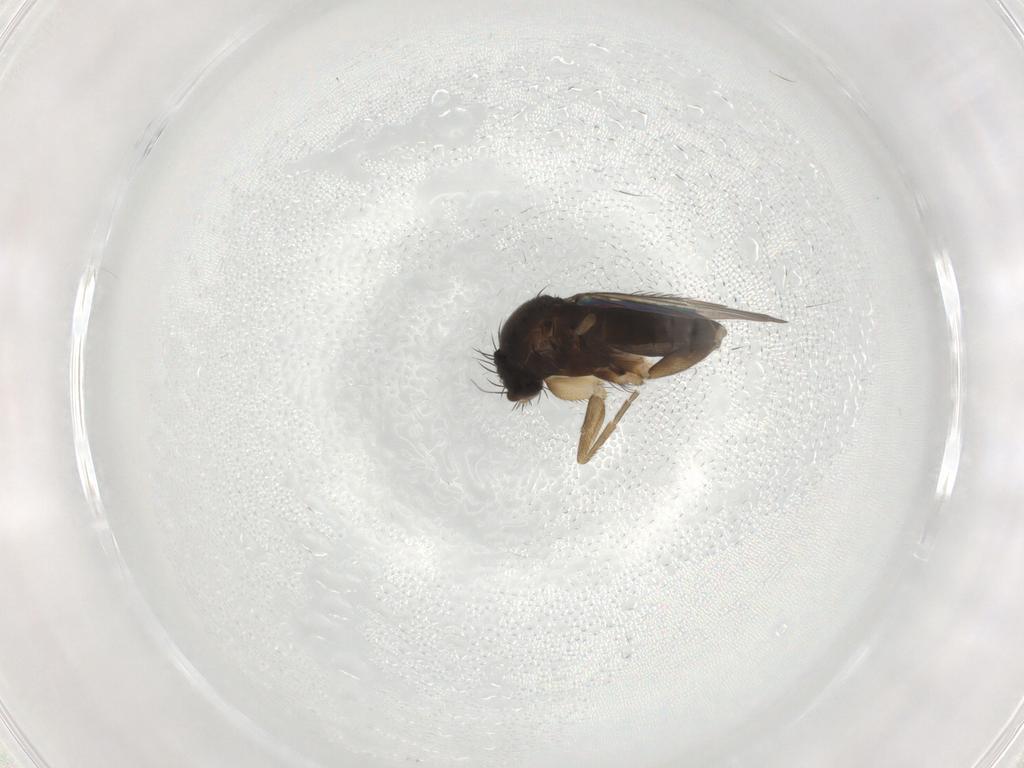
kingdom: Animalia
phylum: Arthropoda
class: Insecta
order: Diptera
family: Phoridae
